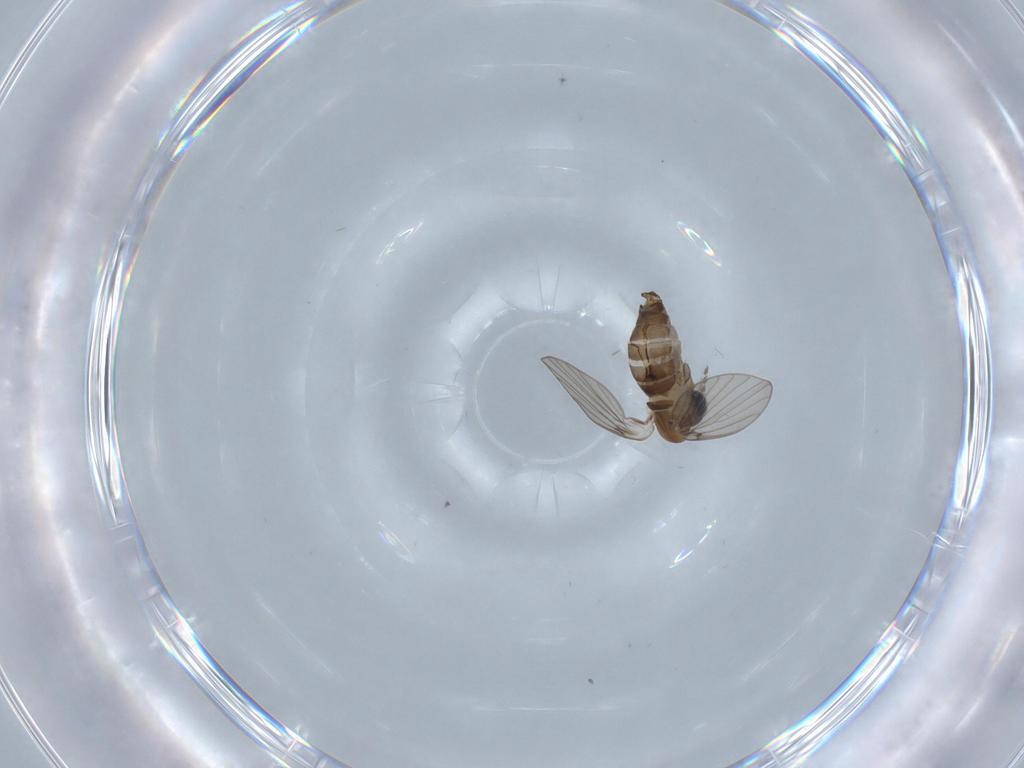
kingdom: Animalia
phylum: Arthropoda
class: Insecta
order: Diptera
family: Psychodidae
